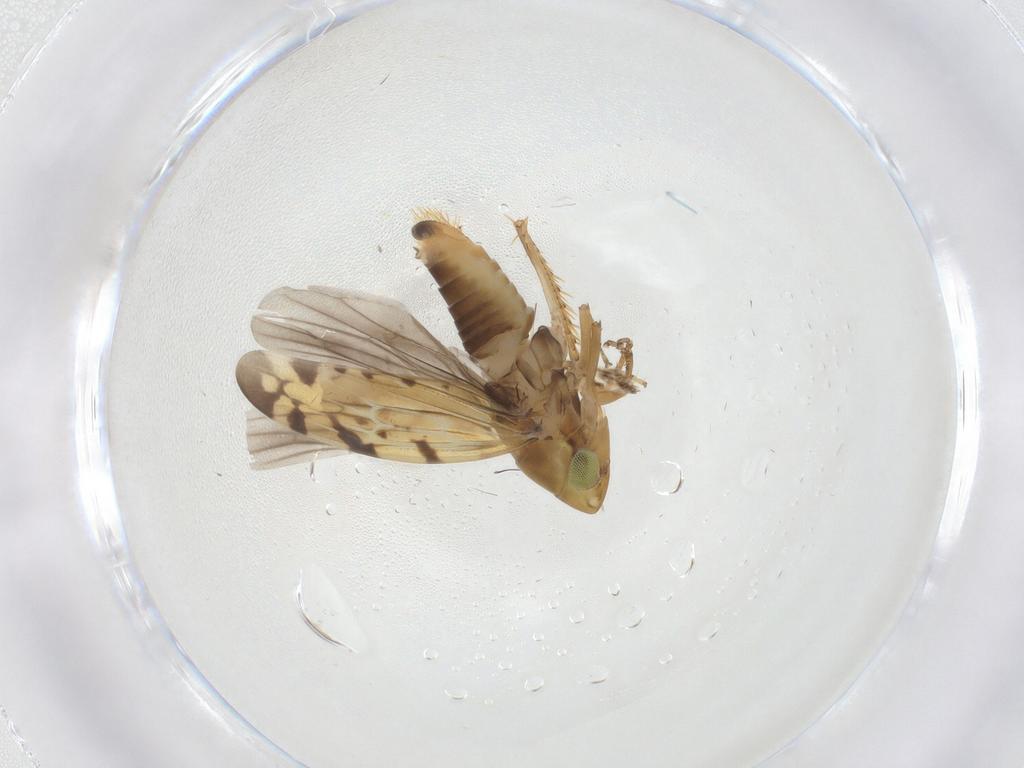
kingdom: Animalia
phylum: Arthropoda
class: Insecta
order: Hemiptera
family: Cicadellidae
